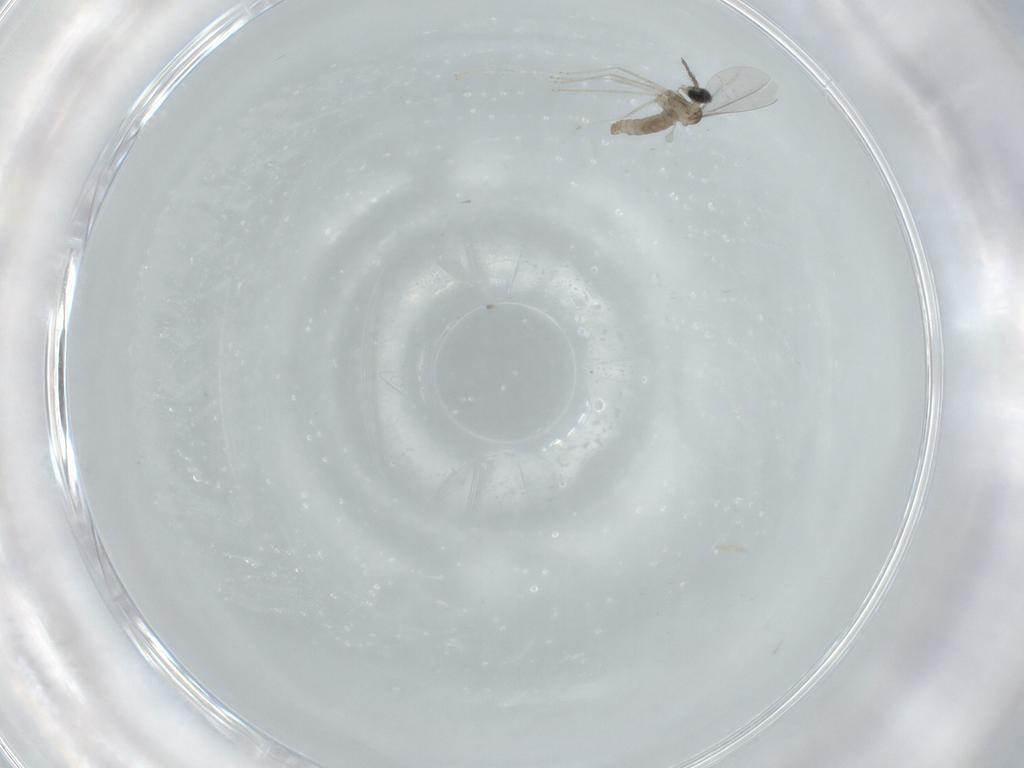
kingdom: Animalia
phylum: Arthropoda
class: Insecta
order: Diptera
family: Cecidomyiidae
